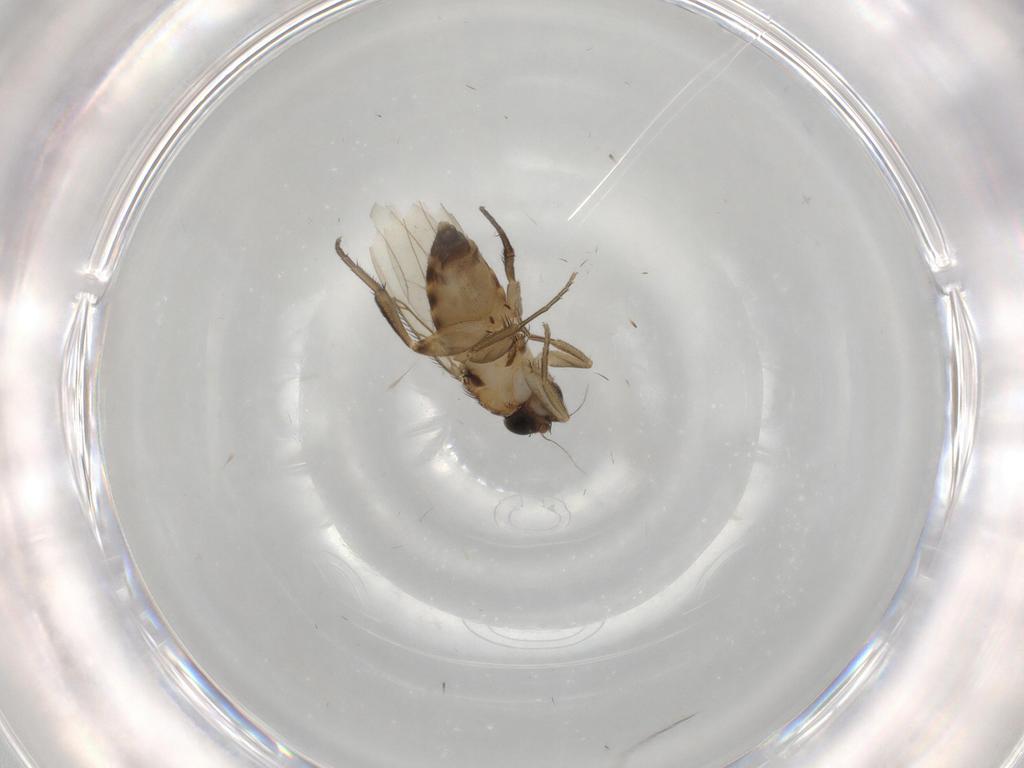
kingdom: Animalia
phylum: Arthropoda
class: Insecta
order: Diptera
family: Phoridae
